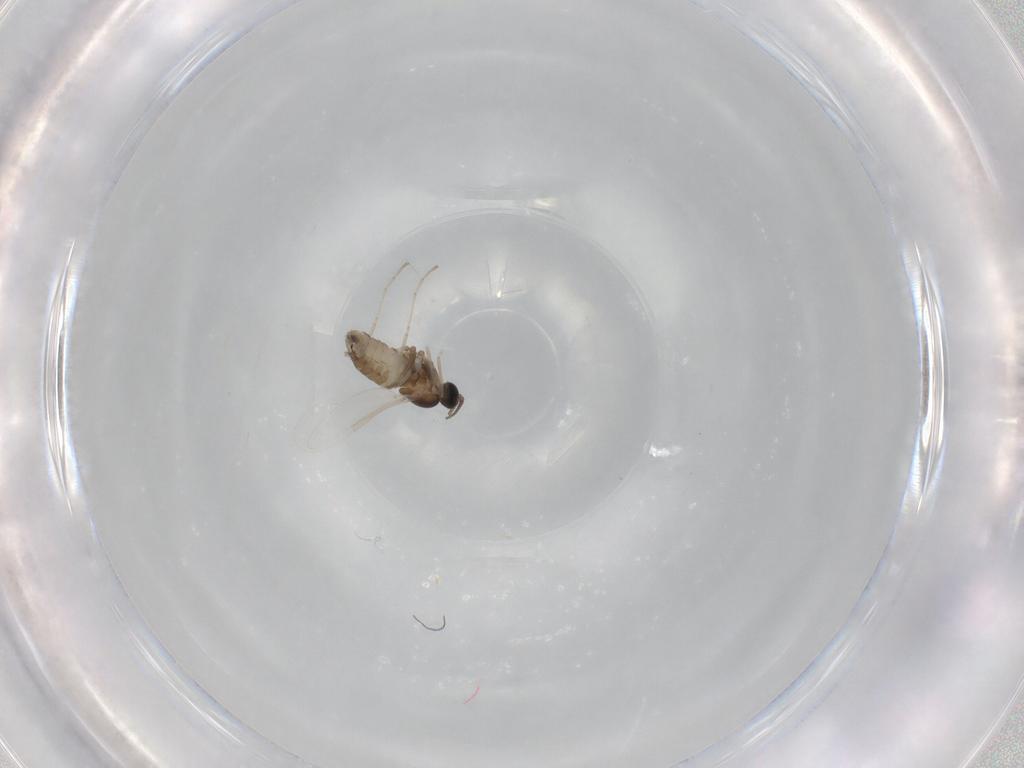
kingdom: Animalia
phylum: Arthropoda
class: Insecta
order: Diptera
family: Cecidomyiidae
